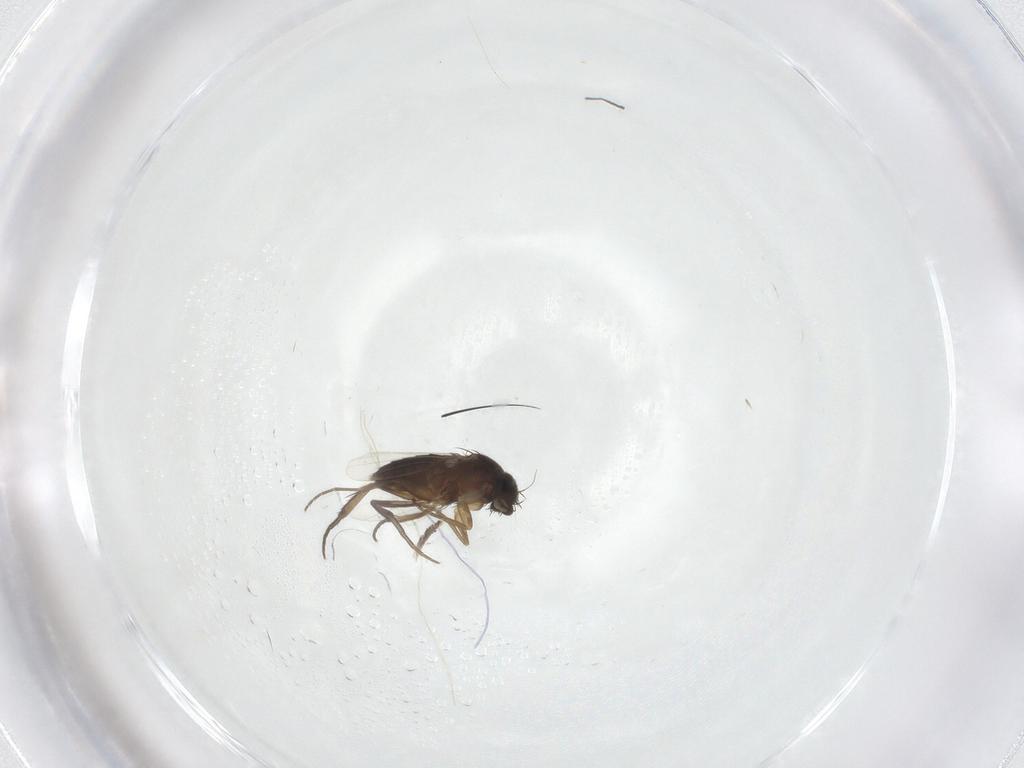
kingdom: Animalia
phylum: Arthropoda
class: Insecta
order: Diptera
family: Phoridae
